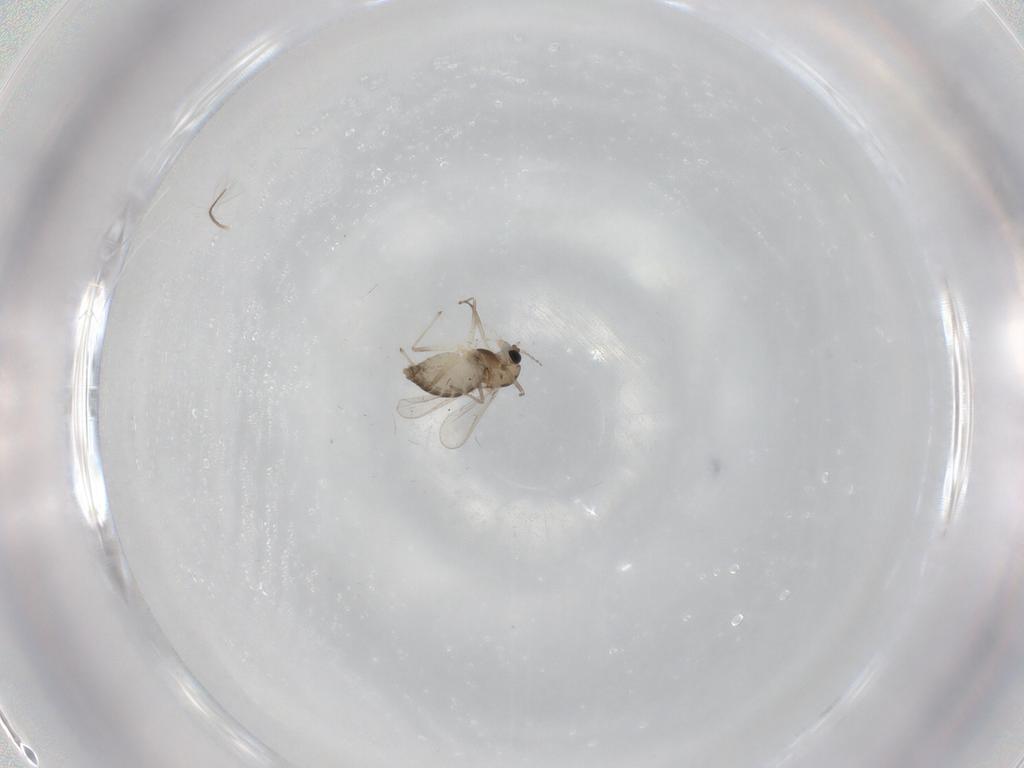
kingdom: Animalia
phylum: Arthropoda
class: Insecta
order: Diptera
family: Chironomidae
